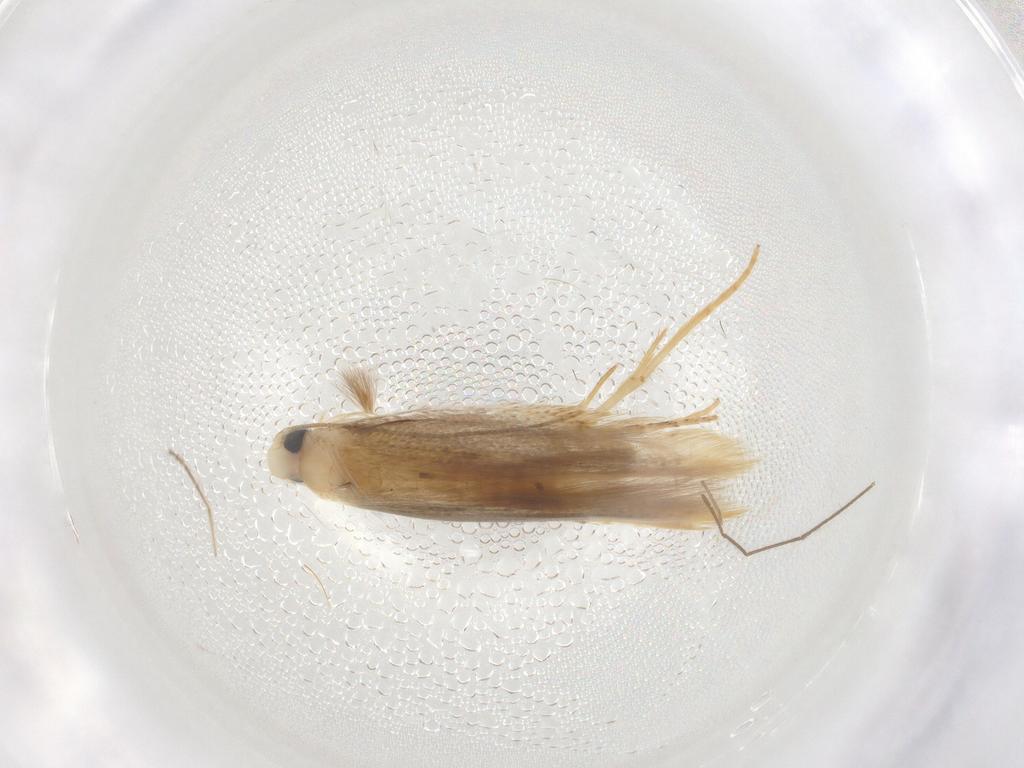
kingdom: Animalia
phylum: Arthropoda
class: Insecta
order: Lepidoptera
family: Tischeriidae
